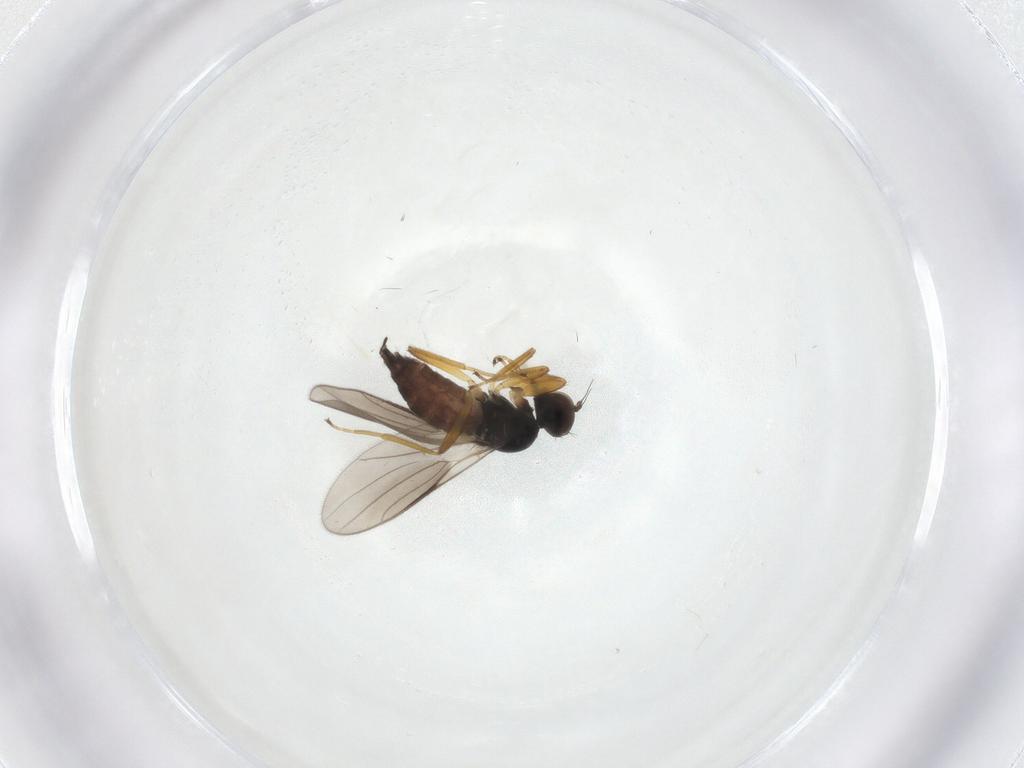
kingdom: Animalia
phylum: Arthropoda
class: Insecta
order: Diptera
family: Hybotidae
